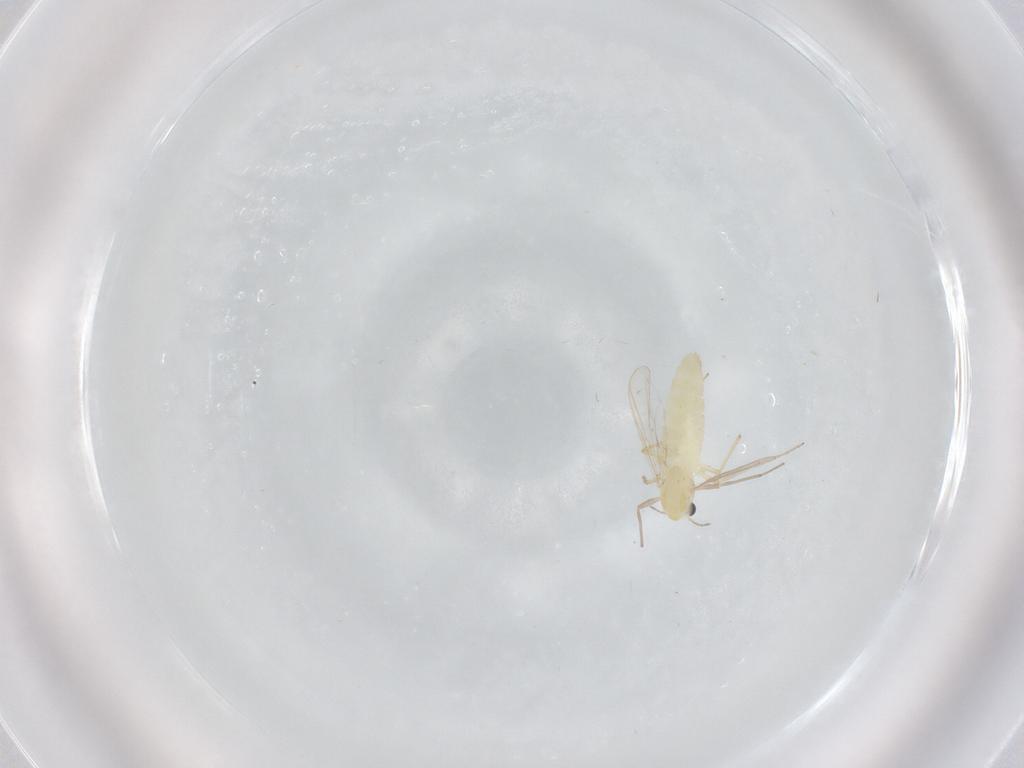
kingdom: Animalia
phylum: Arthropoda
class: Insecta
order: Diptera
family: Chironomidae
